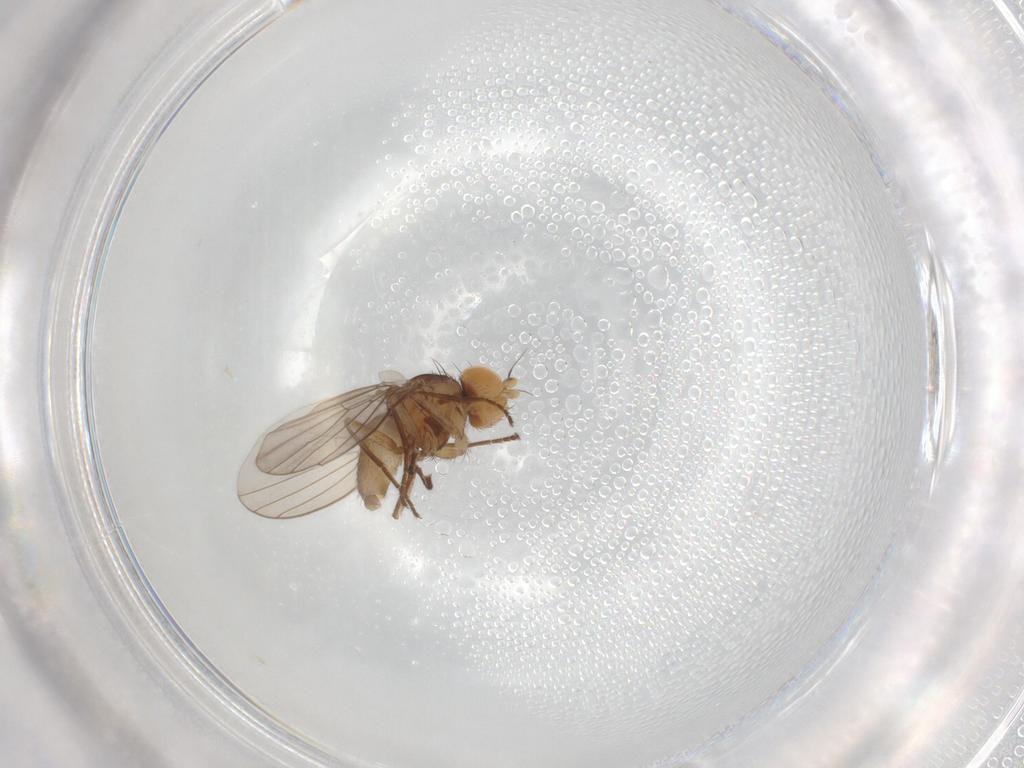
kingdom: Animalia
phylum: Arthropoda
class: Insecta
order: Diptera
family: Syrphidae
